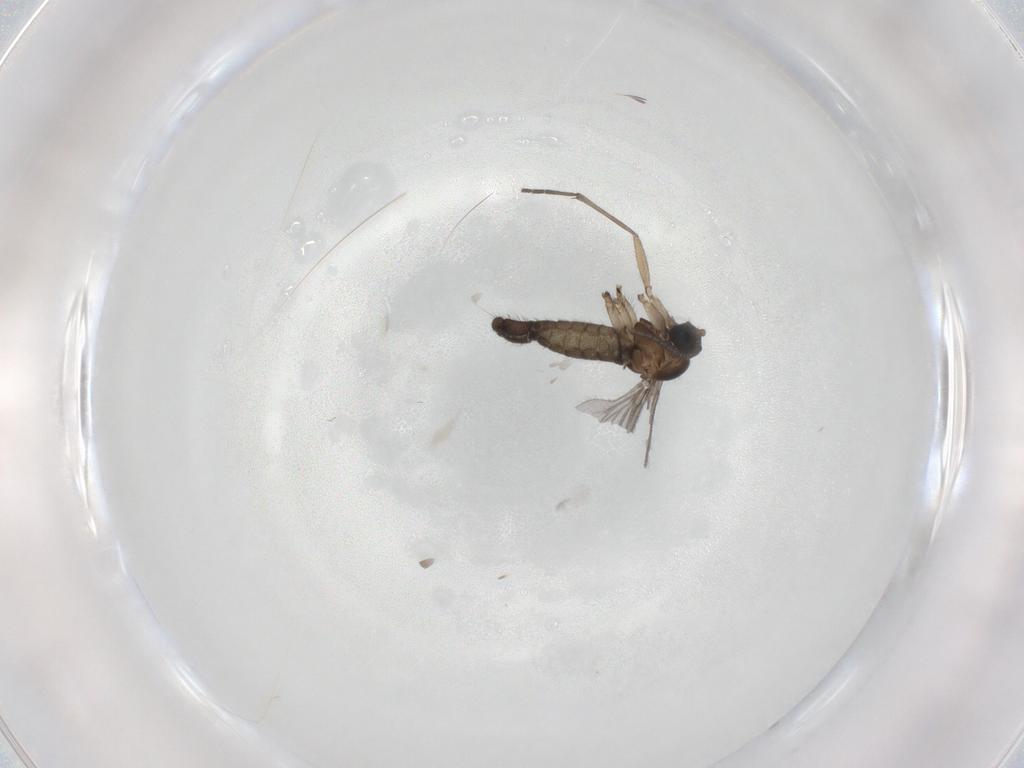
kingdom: Animalia
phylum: Arthropoda
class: Insecta
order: Diptera
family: Sciaridae
